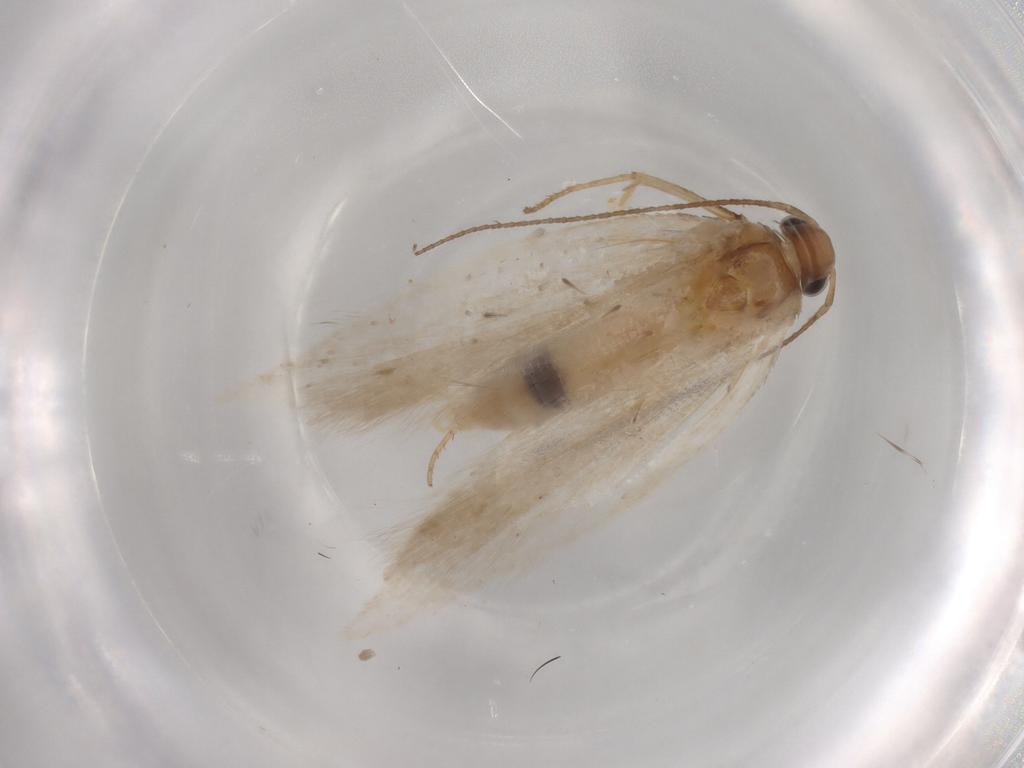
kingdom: Animalia
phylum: Arthropoda
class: Insecta
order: Lepidoptera
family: Gelechiidae
